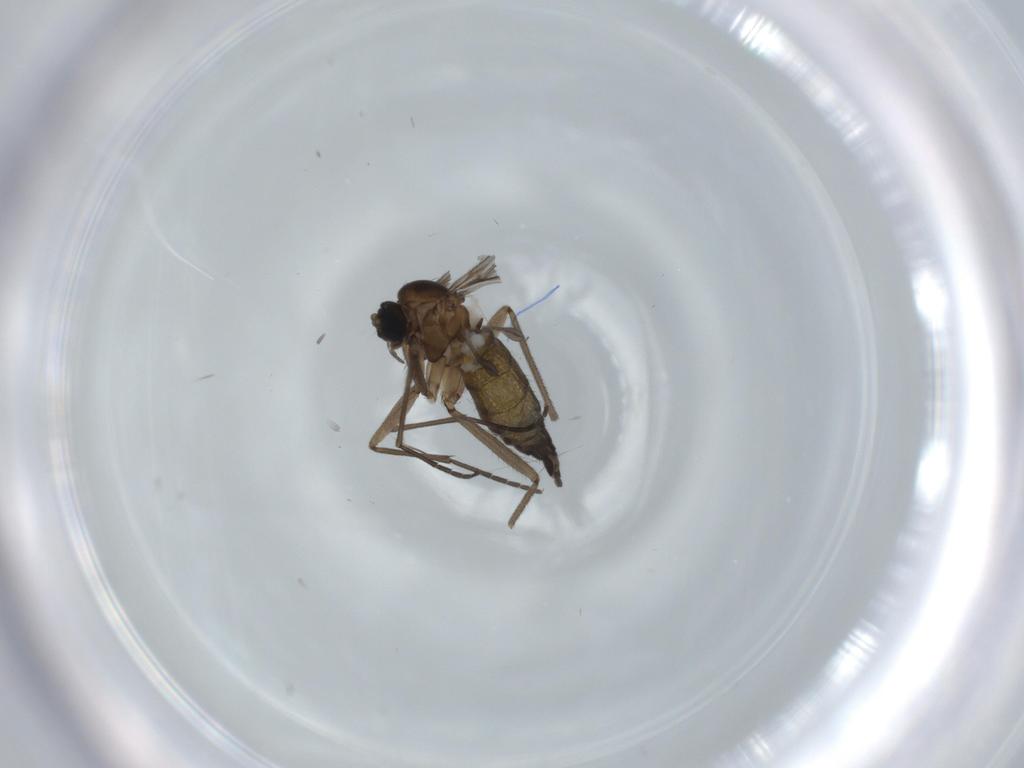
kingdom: Animalia
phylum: Arthropoda
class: Insecta
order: Diptera
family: Sciaridae
